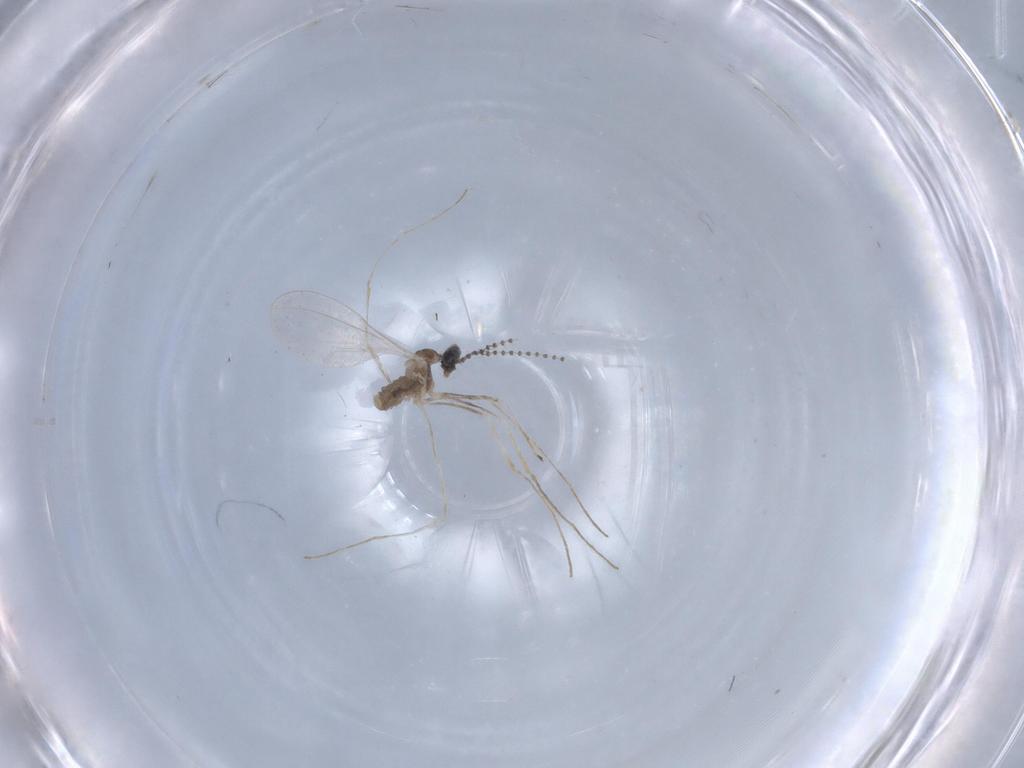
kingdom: Animalia
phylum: Arthropoda
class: Insecta
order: Diptera
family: Cecidomyiidae
